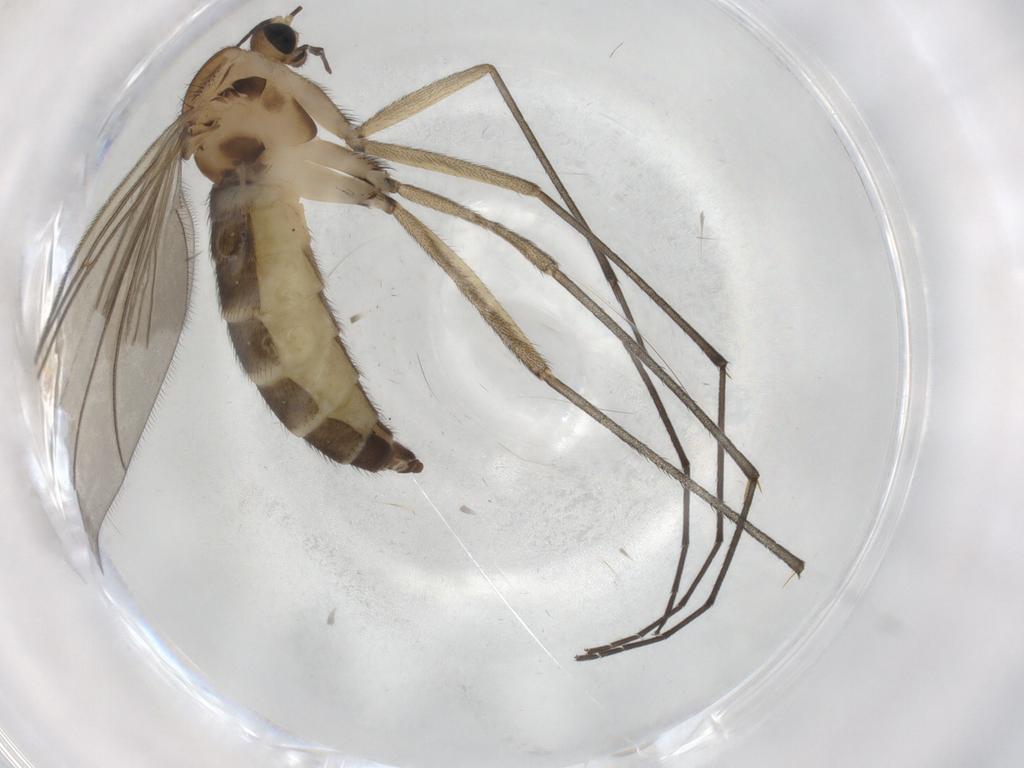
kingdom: Animalia
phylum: Arthropoda
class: Insecta
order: Diptera
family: Sciaridae
